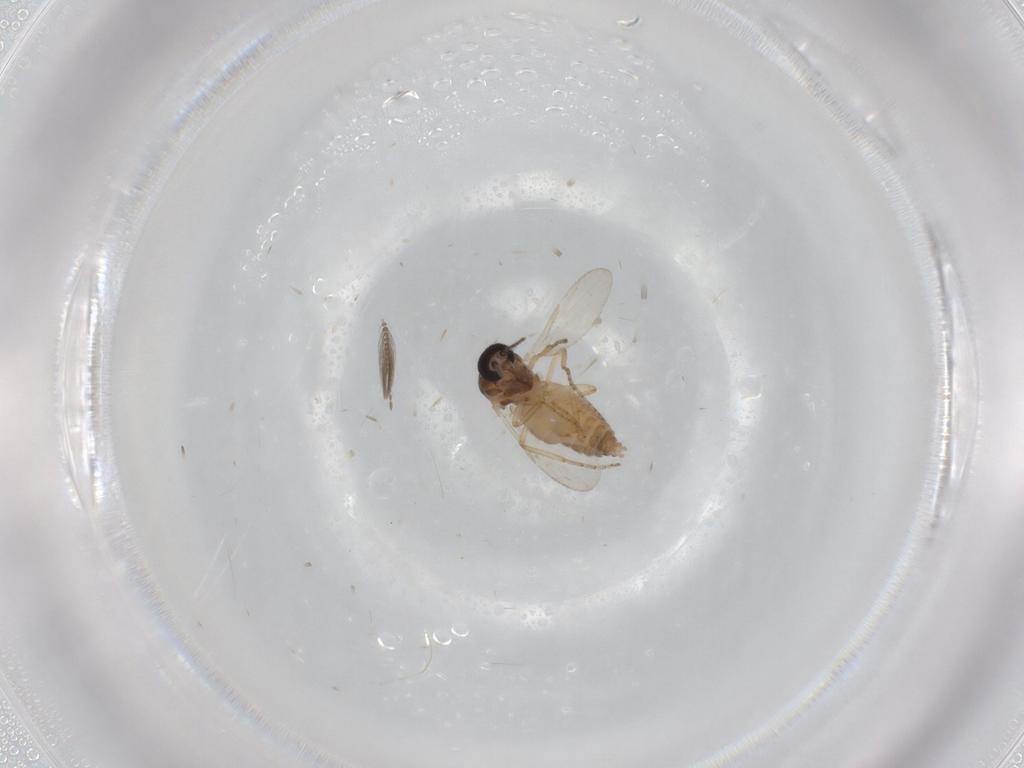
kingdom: Animalia
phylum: Arthropoda
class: Insecta
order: Diptera
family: Ceratopogonidae
